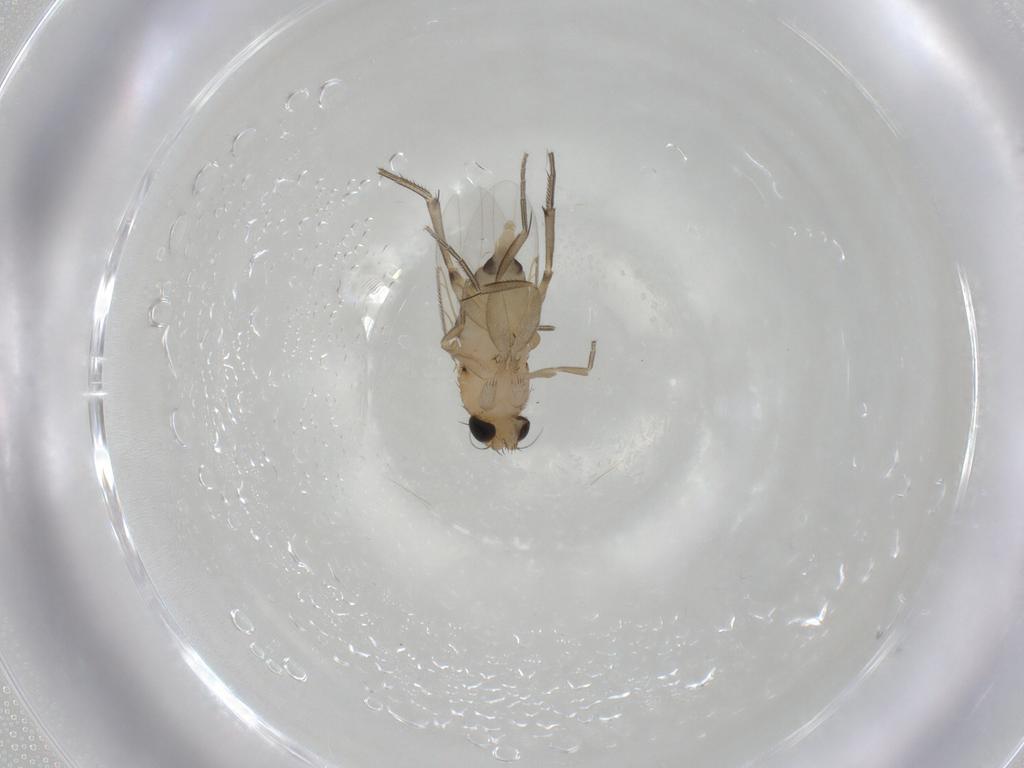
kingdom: Animalia
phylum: Arthropoda
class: Insecta
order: Diptera
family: Phoridae
